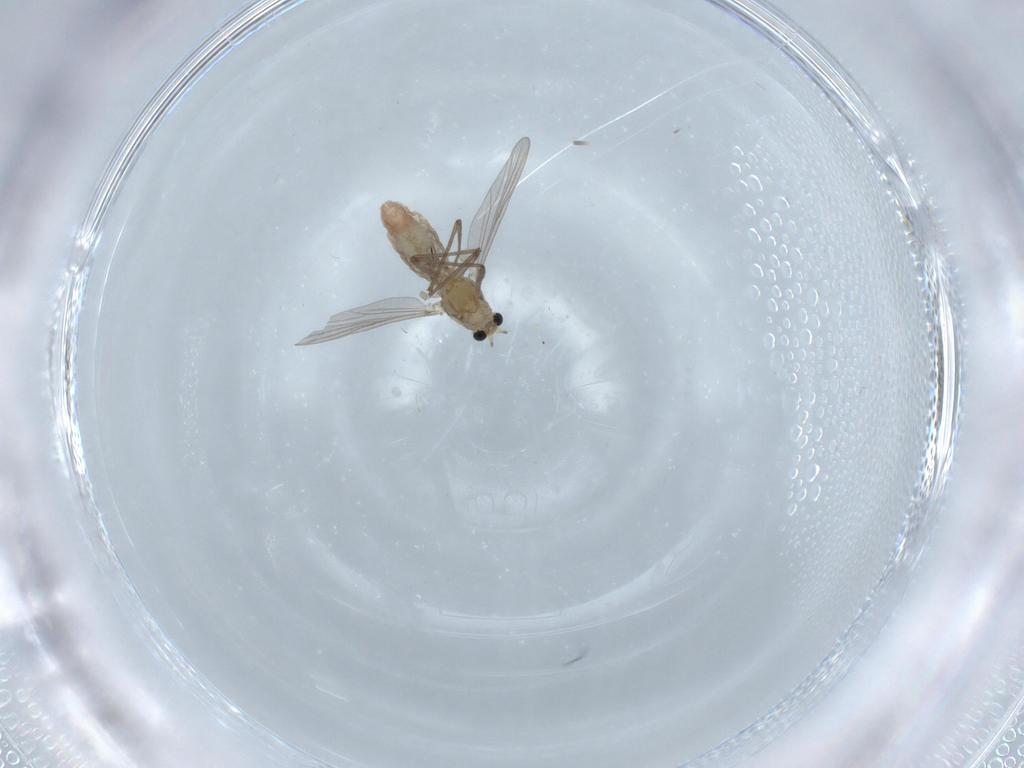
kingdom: Animalia
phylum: Arthropoda
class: Insecta
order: Diptera
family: Chironomidae
